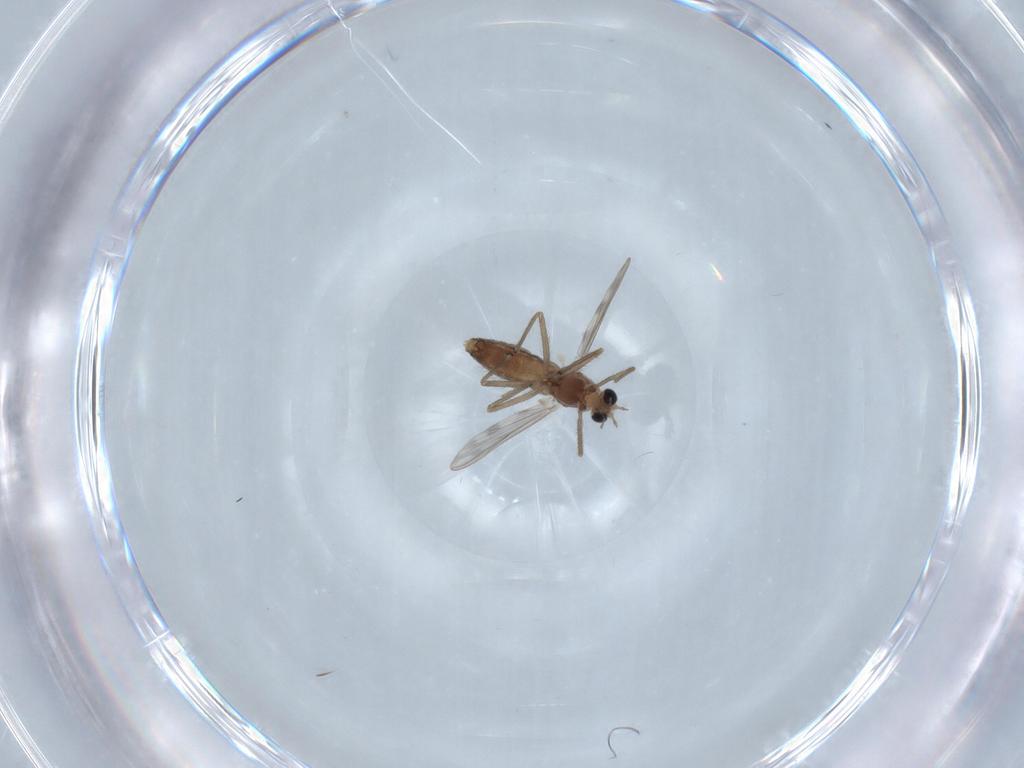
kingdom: Animalia
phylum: Arthropoda
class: Insecta
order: Diptera
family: Chironomidae
